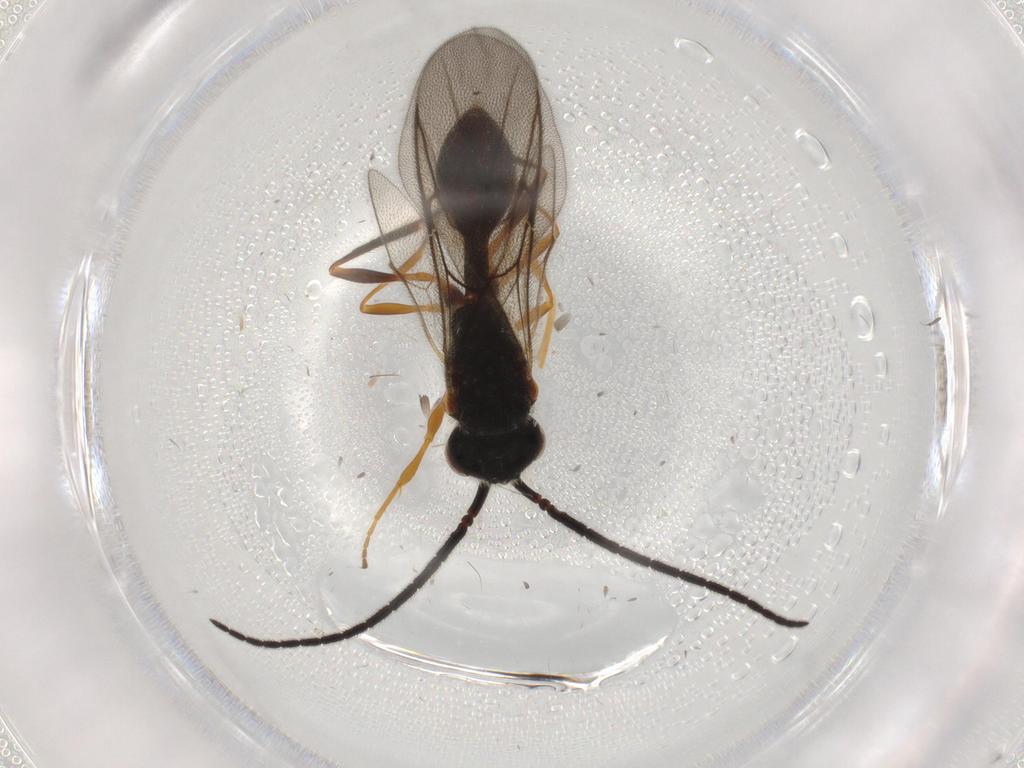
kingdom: Animalia
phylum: Arthropoda
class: Insecta
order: Hymenoptera
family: Diapriidae
